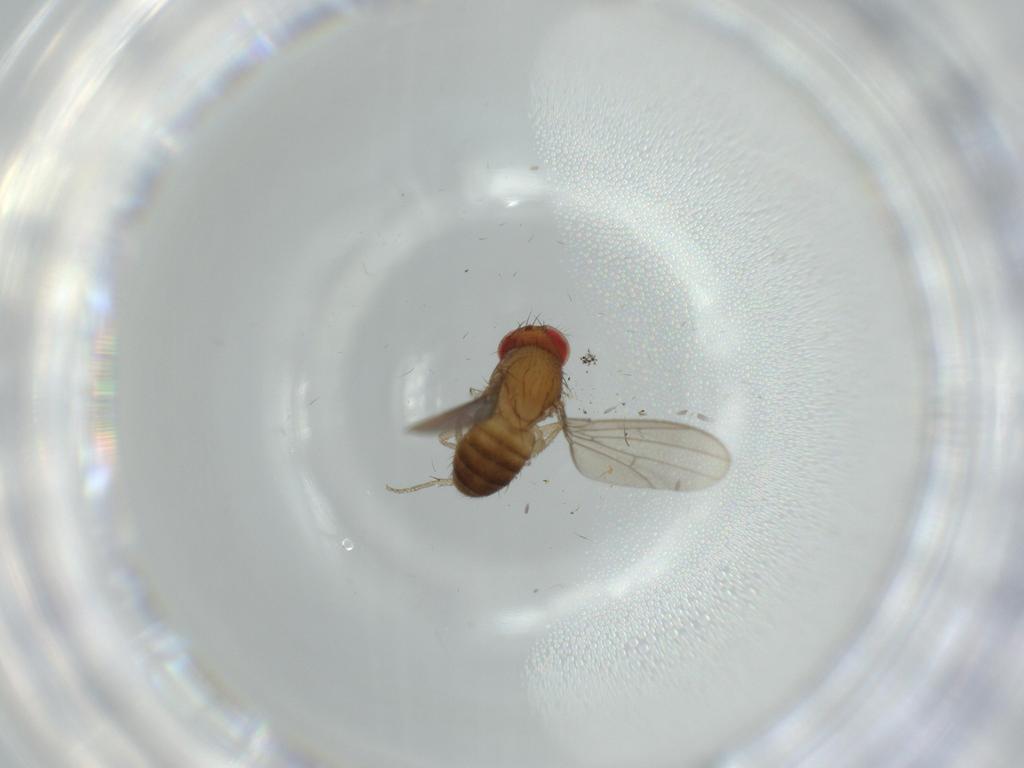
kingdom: Animalia
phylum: Arthropoda
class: Insecta
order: Diptera
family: Drosophilidae
